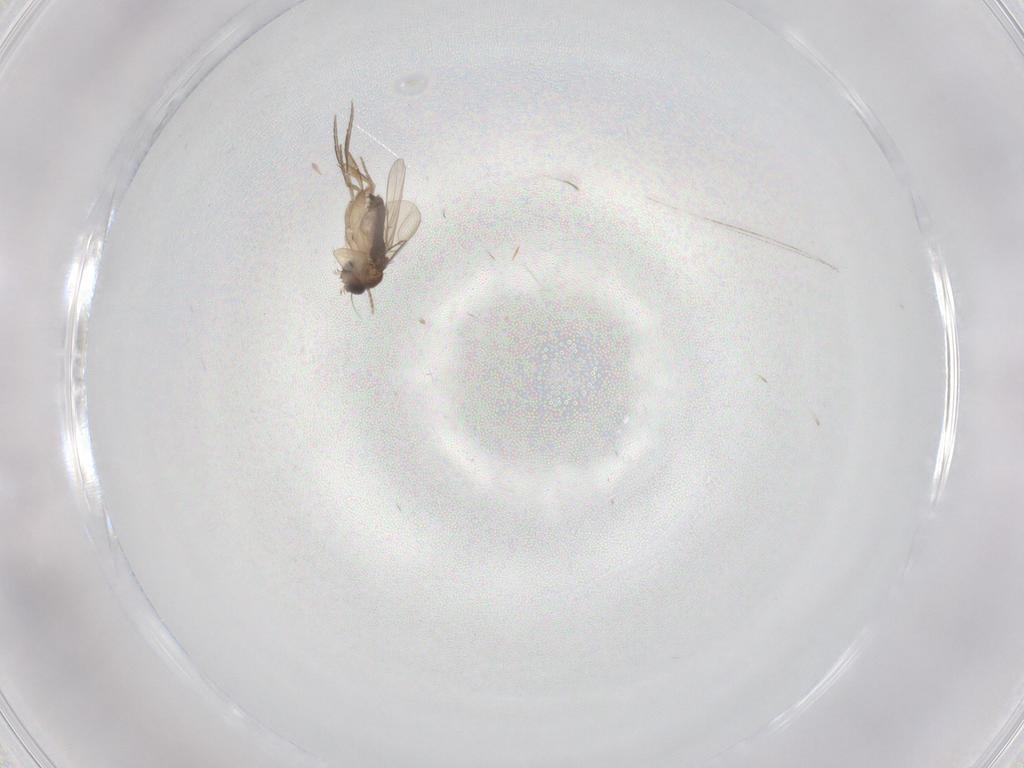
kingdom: Animalia
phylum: Arthropoda
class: Insecta
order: Diptera
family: Phoridae
